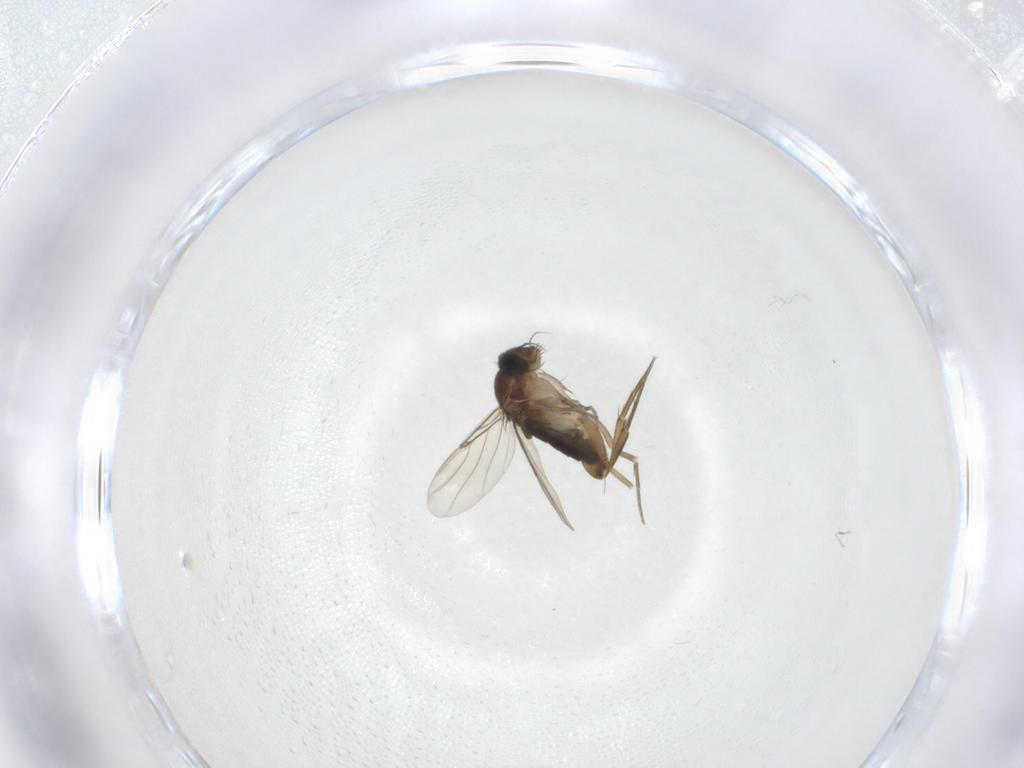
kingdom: Animalia
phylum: Arthropoda
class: Insecta
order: Diptera
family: Phoridae
